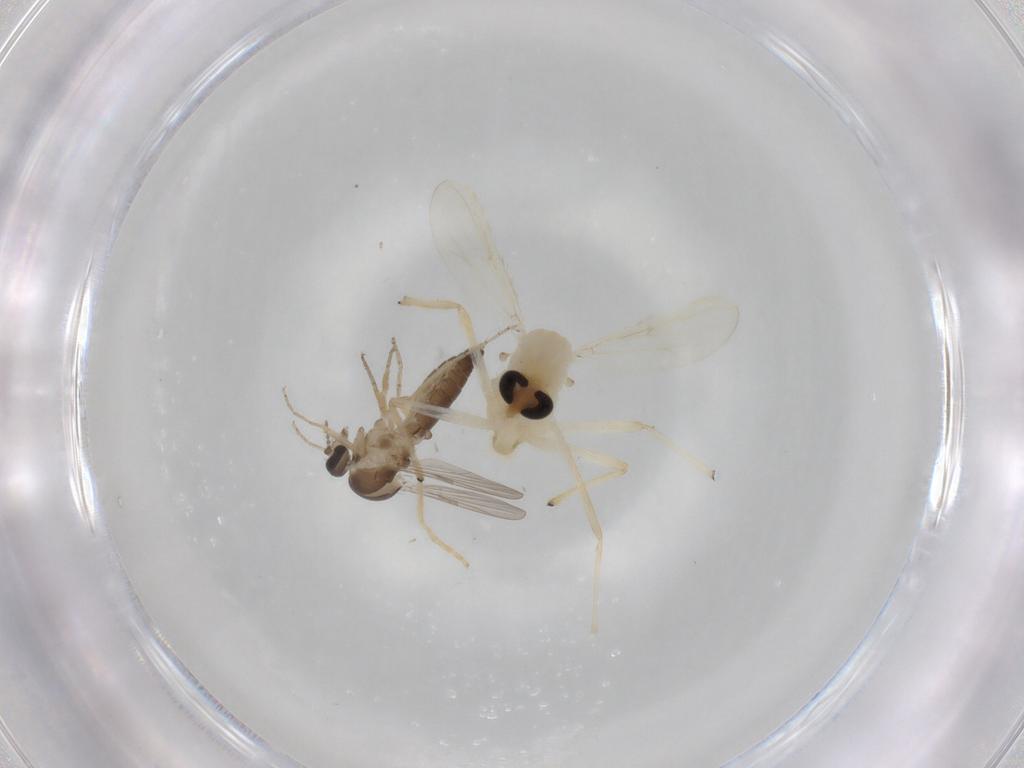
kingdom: Animalia
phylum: Arthropoda
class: Insecta
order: Diptera
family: Chironomidae
